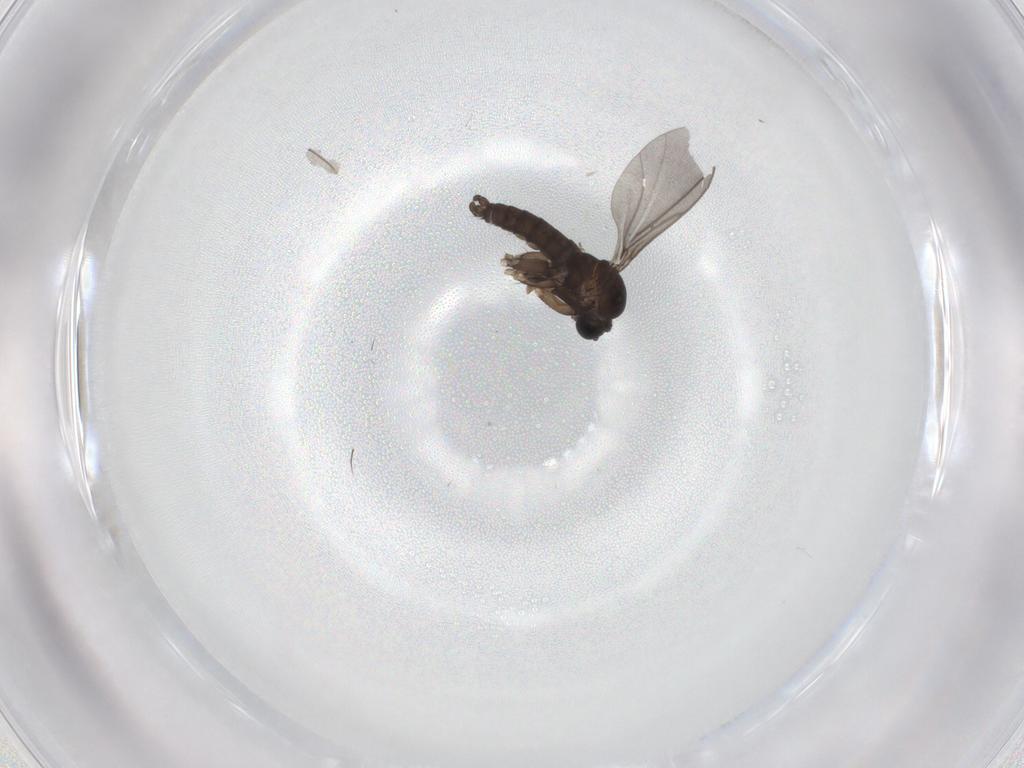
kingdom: Animalia
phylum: Arthropoda
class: Insecta
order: Diptera
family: Sciaridae
